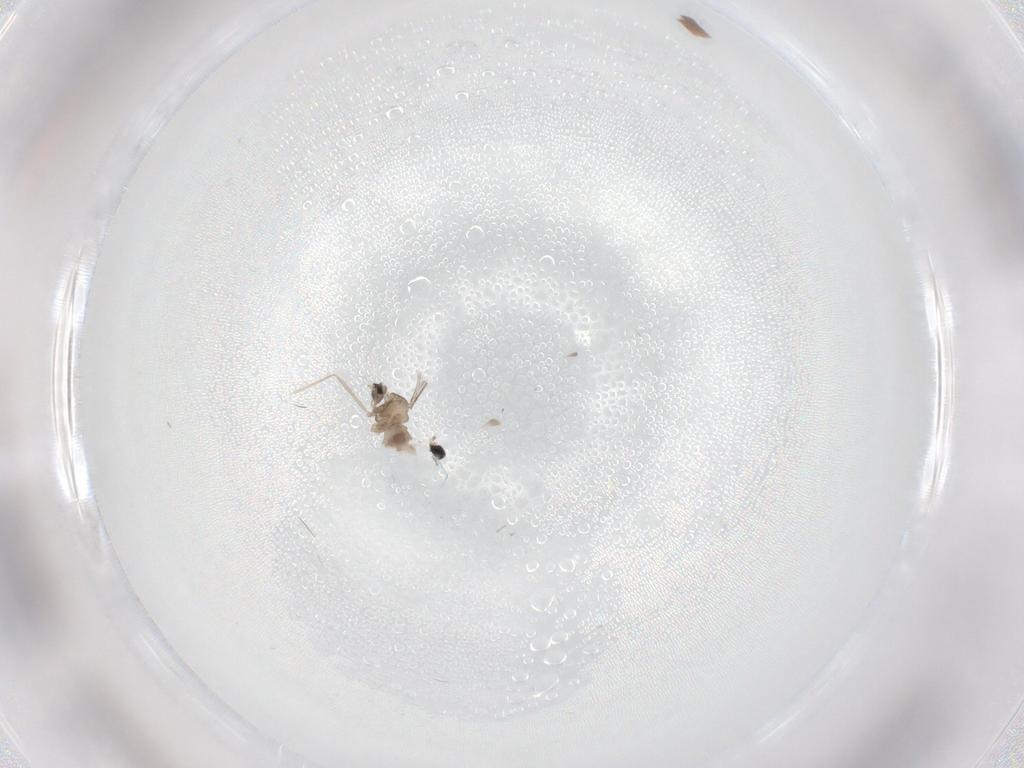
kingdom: Animalia
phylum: Arthropoda
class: Insecta
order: Diptera
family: Cecidomyiidae
